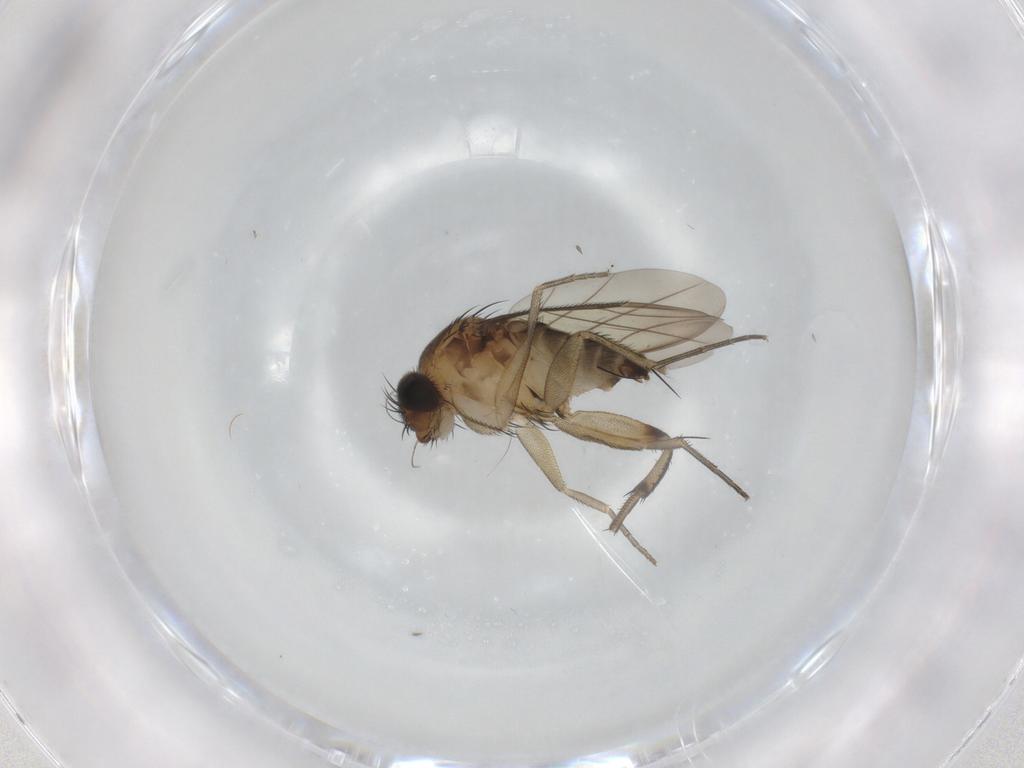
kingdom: Animalia
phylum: Arthropoda
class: Insecta
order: Diptera
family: Phoridae
